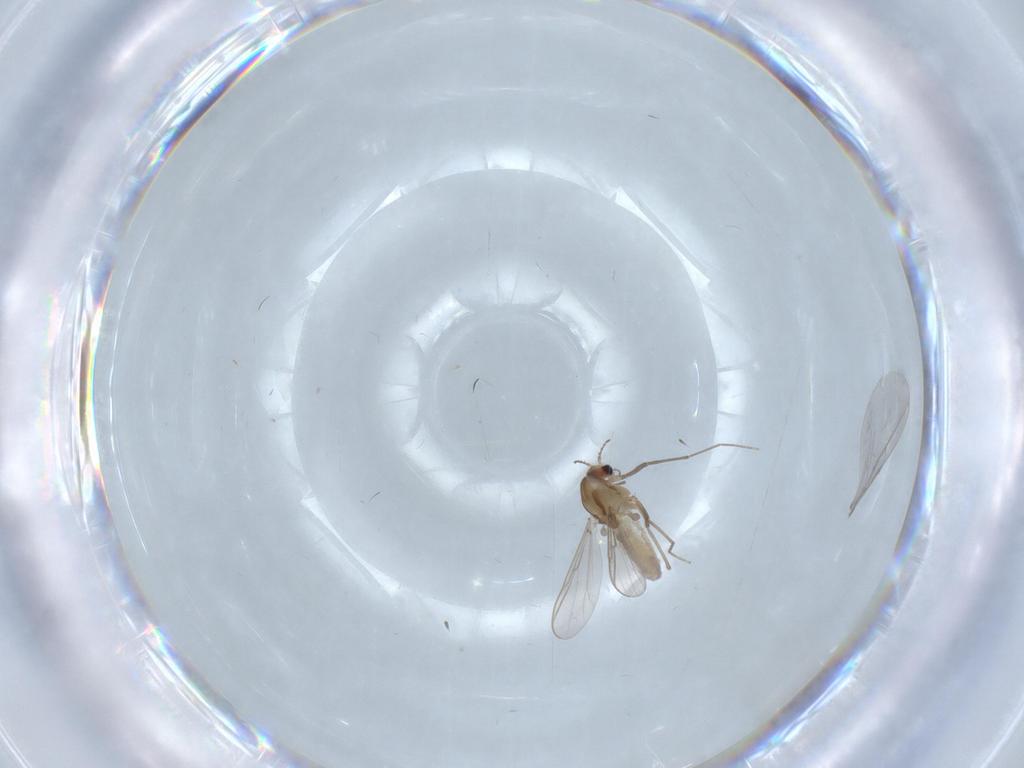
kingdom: Animalia
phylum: Arthropoda
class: Insecta
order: Diptera
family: Chironomidae
